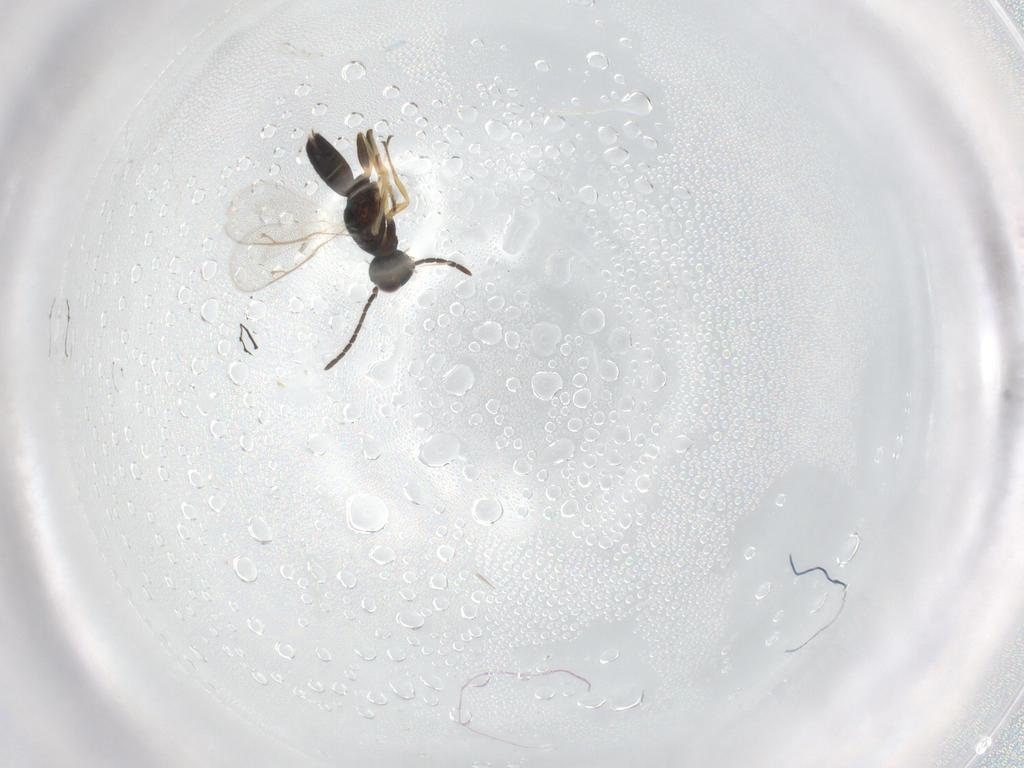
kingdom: Animalia
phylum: Arthropoda
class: Insecta
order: Hymenoptera
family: Eupelmidae
